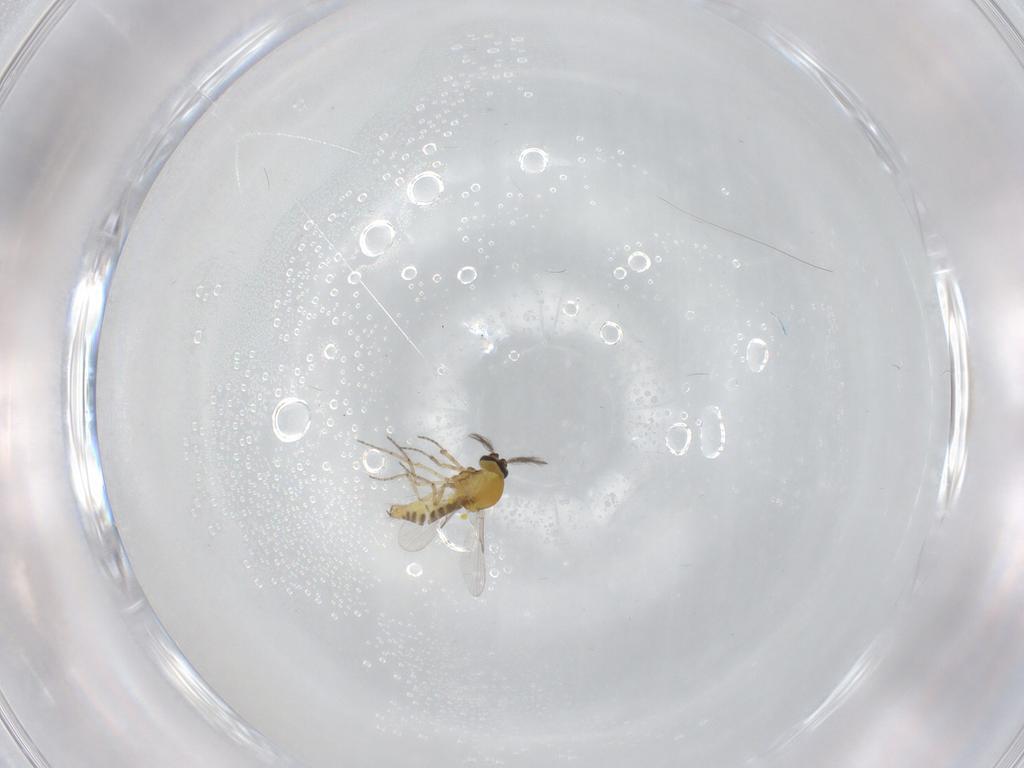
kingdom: Animalia
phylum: Arthropoda
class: Insecta
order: Diptera
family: Ceratopogonidae
